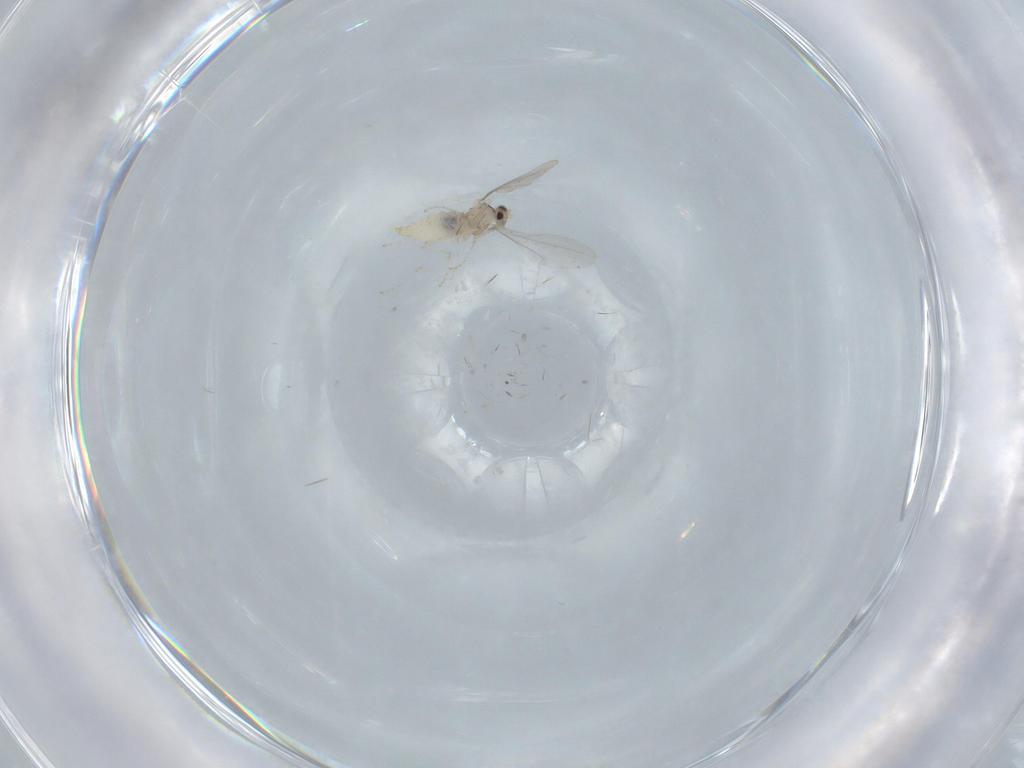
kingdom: Animalia
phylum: Arthropoda
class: Insecta
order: Diptera
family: Cecidomyiidae
